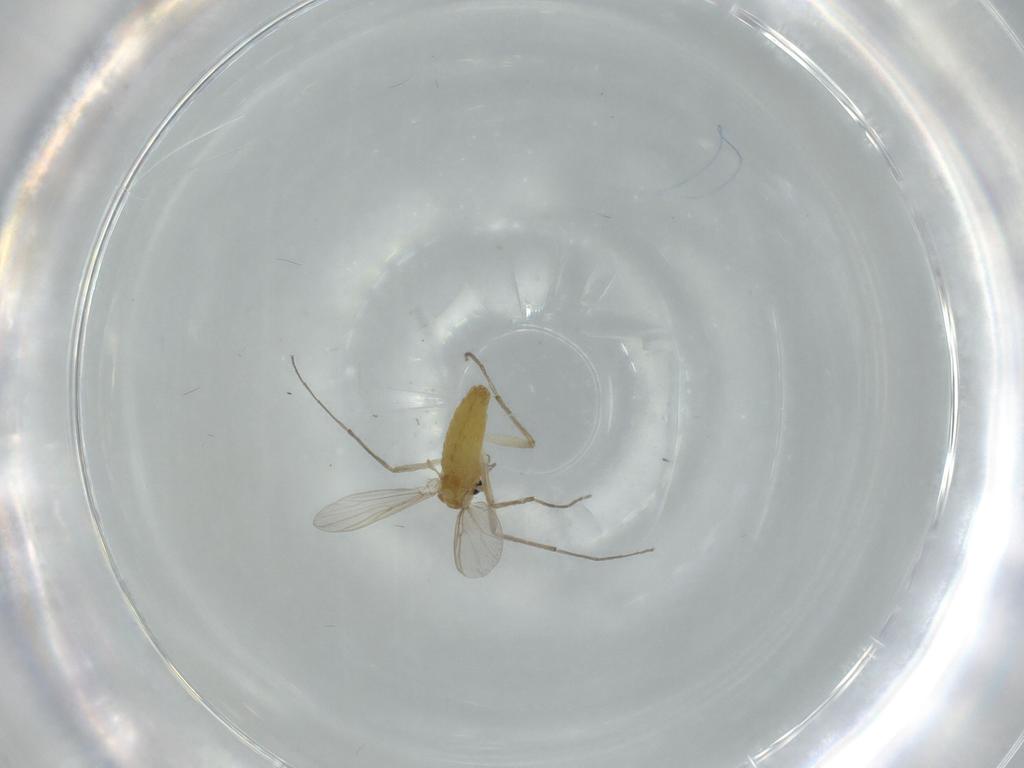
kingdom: Animalia
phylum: Arthropoda
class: Insecta
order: Diptera
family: Chironomidae
